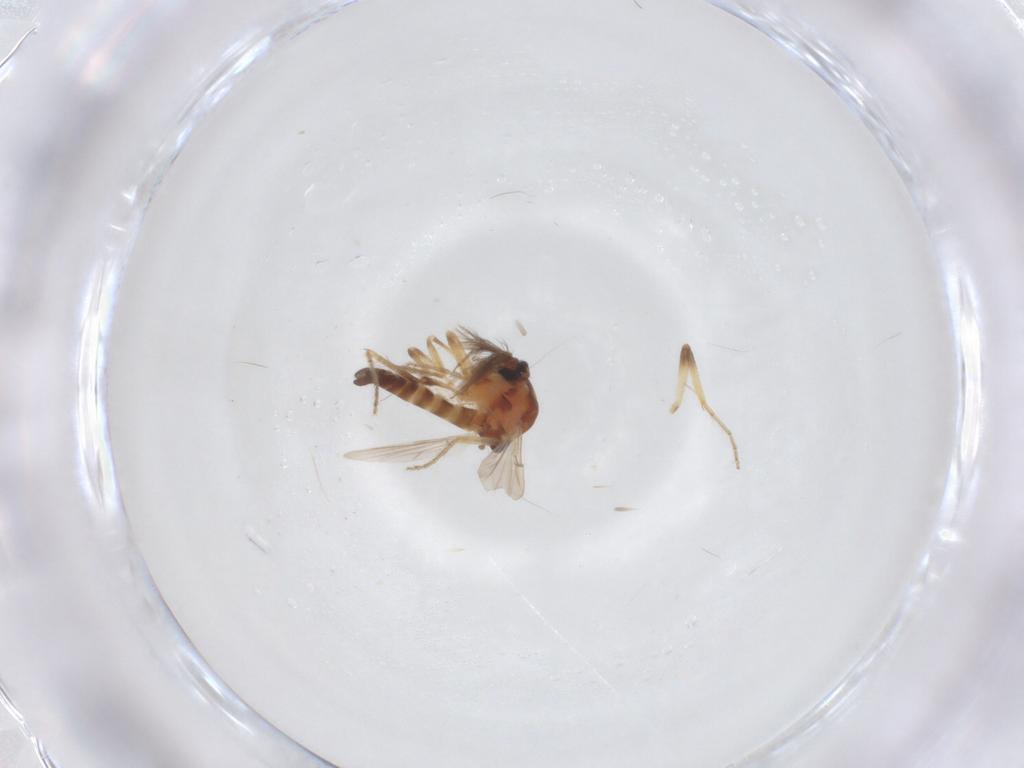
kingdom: Animalia
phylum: Arthropoda
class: Insecta
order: Diptera
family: Ceratopogonidae
